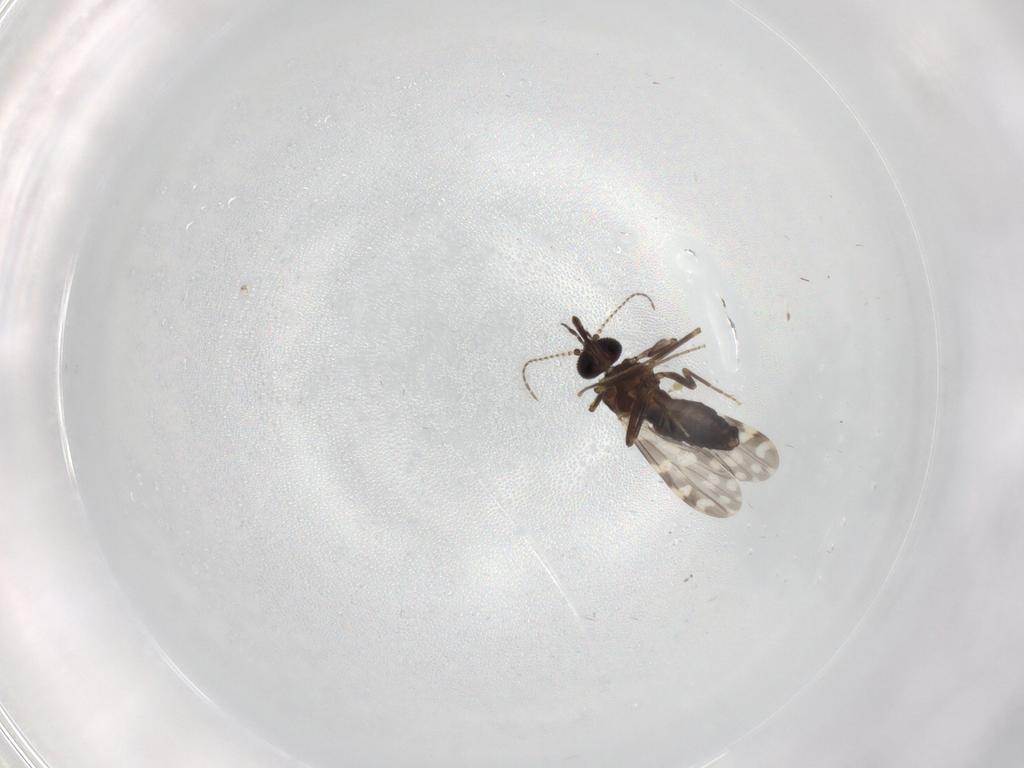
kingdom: Animalia
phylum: Arthropoda
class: Insecta
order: Diptera
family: Ceratopogonidae
